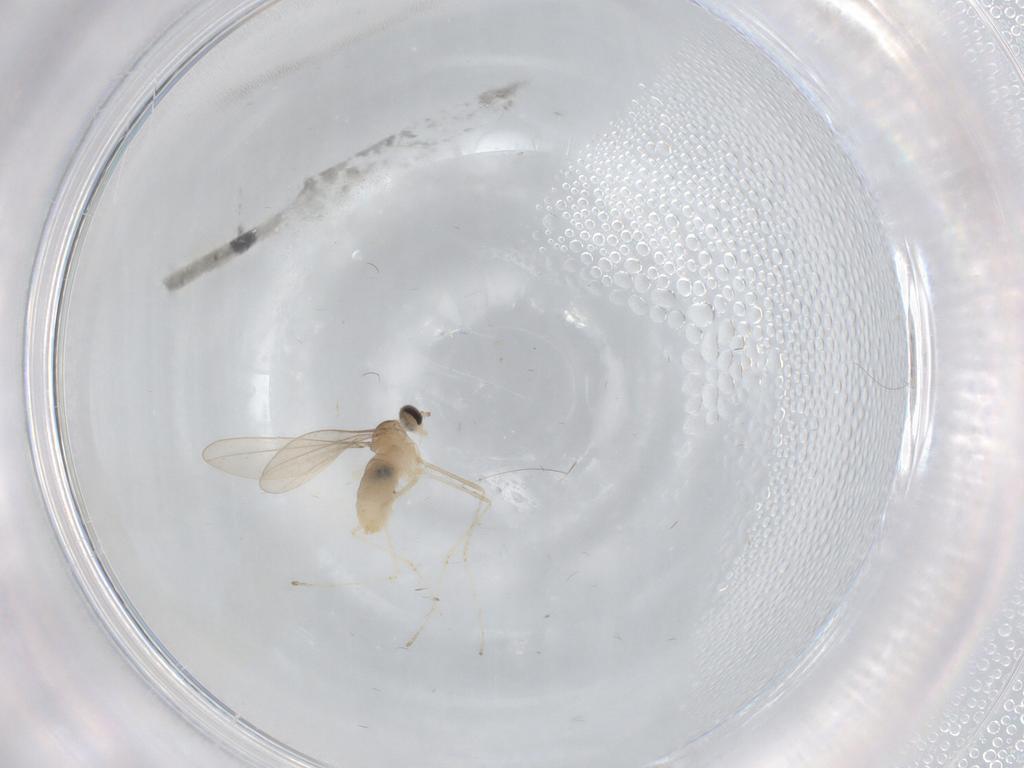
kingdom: Animalia
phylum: Arthropoda
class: Insecta
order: Diptera
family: Cecidomyiidae
